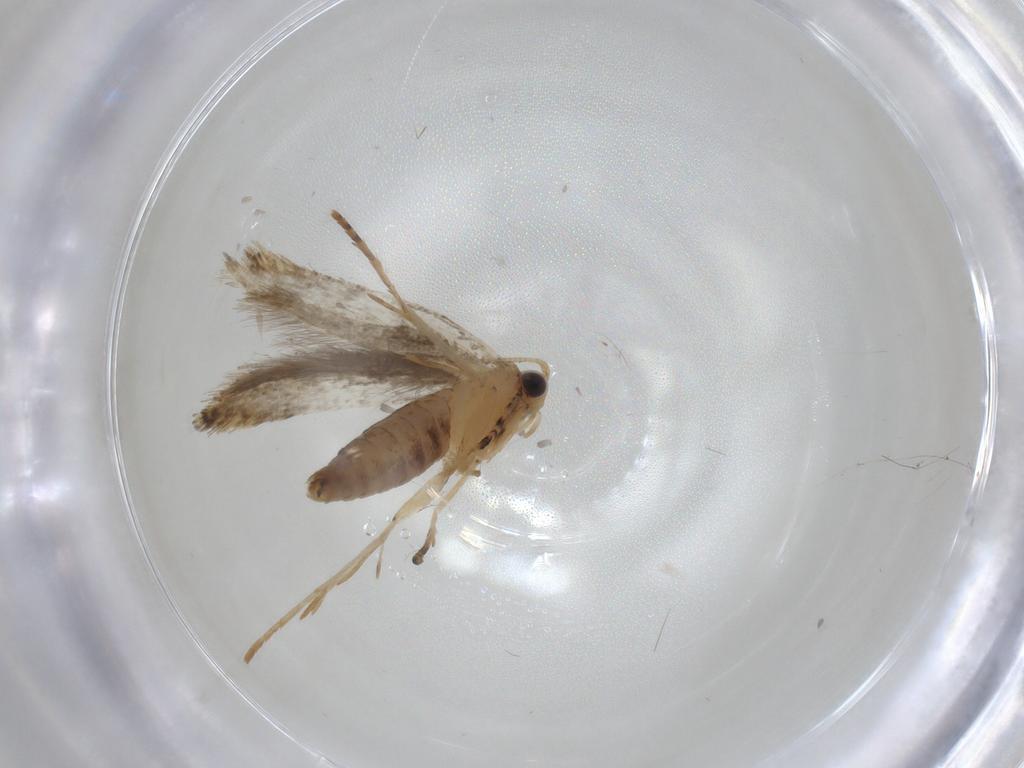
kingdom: Animalia
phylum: Arthropoda
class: Insecta
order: Lepidoptera
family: Tineidae
